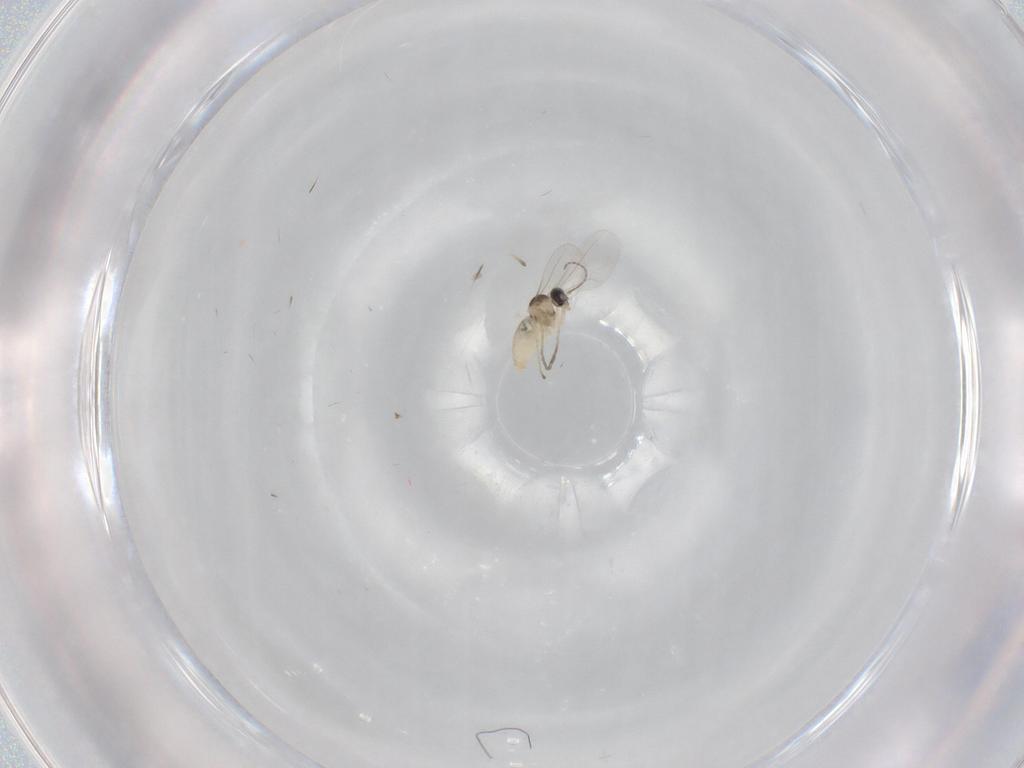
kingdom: Animalia
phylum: Arthropoda
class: Insecta
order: Diptera
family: Cecidomyiidae
